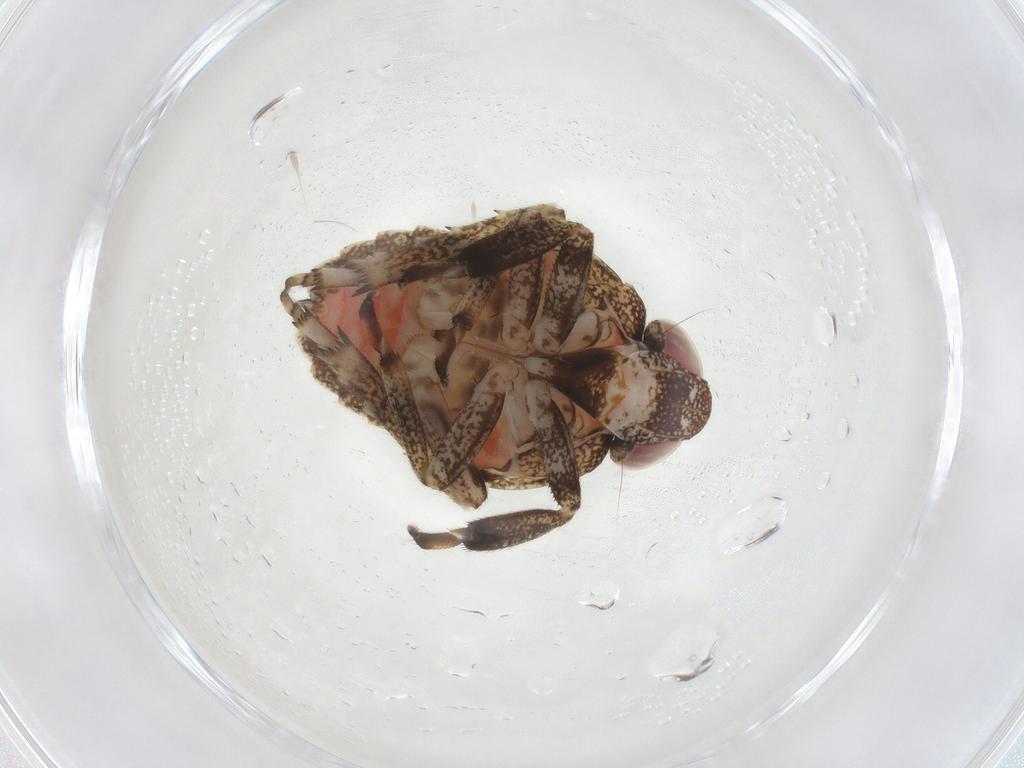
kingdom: Animalia
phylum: Arthropoda
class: Insecta
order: Hemiptera
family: Issidae
